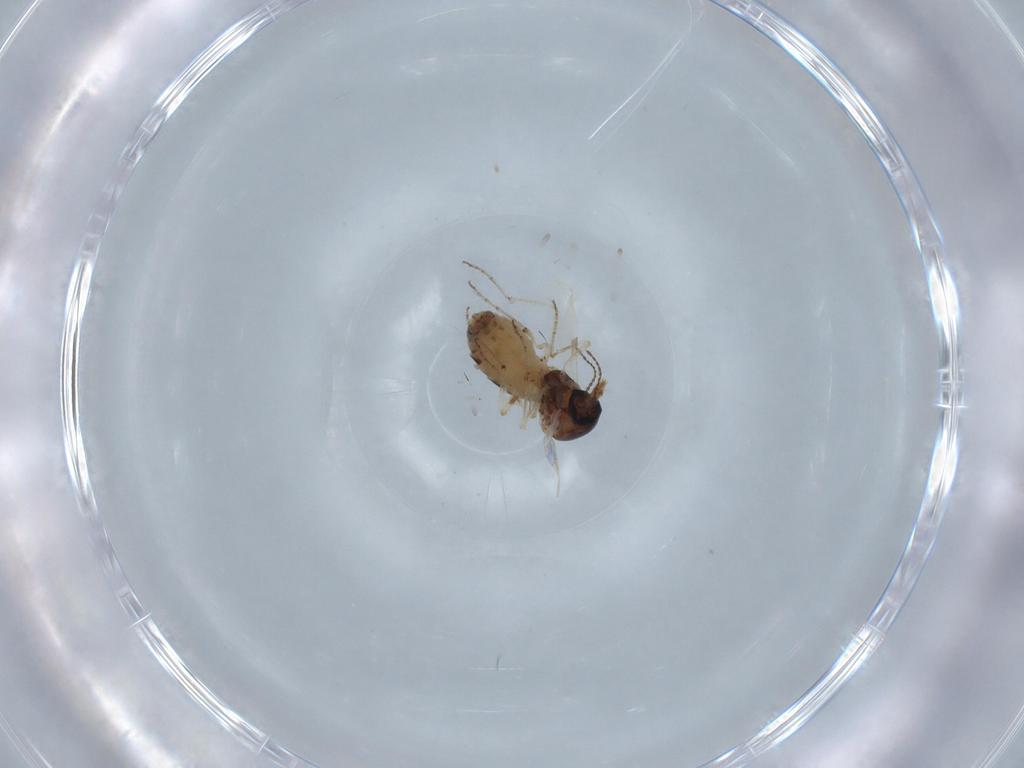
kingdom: Animalia
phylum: Arthropoda
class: Insecta
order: Diptera
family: Ceratopogonidae
